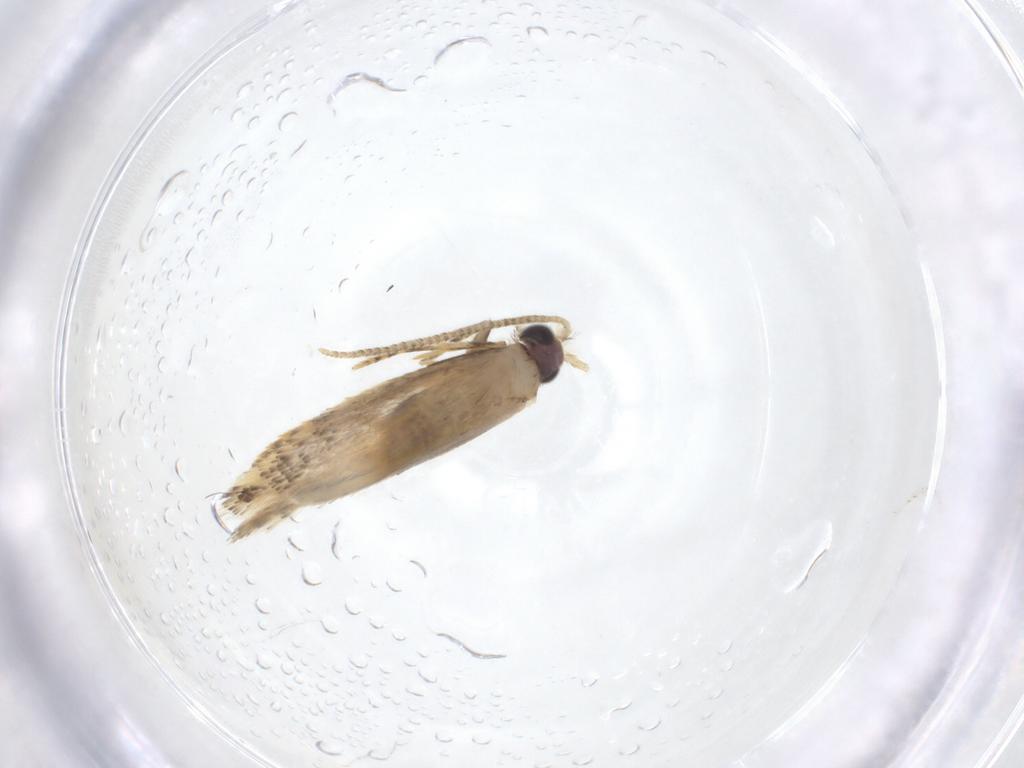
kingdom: Animalia
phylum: Arthropoda
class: Insecta
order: Lepidoptera
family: Nepticulidae
